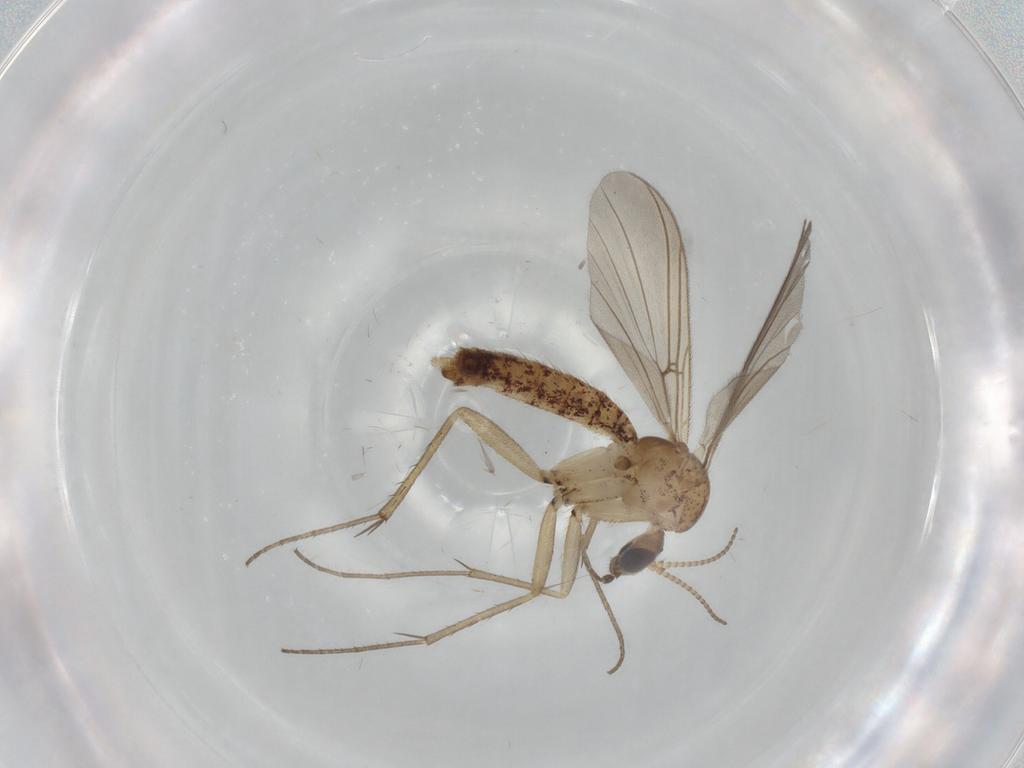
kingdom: Animalia
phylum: Arthropoda
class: Insecta
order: Diptera
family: Mycetophilidae
